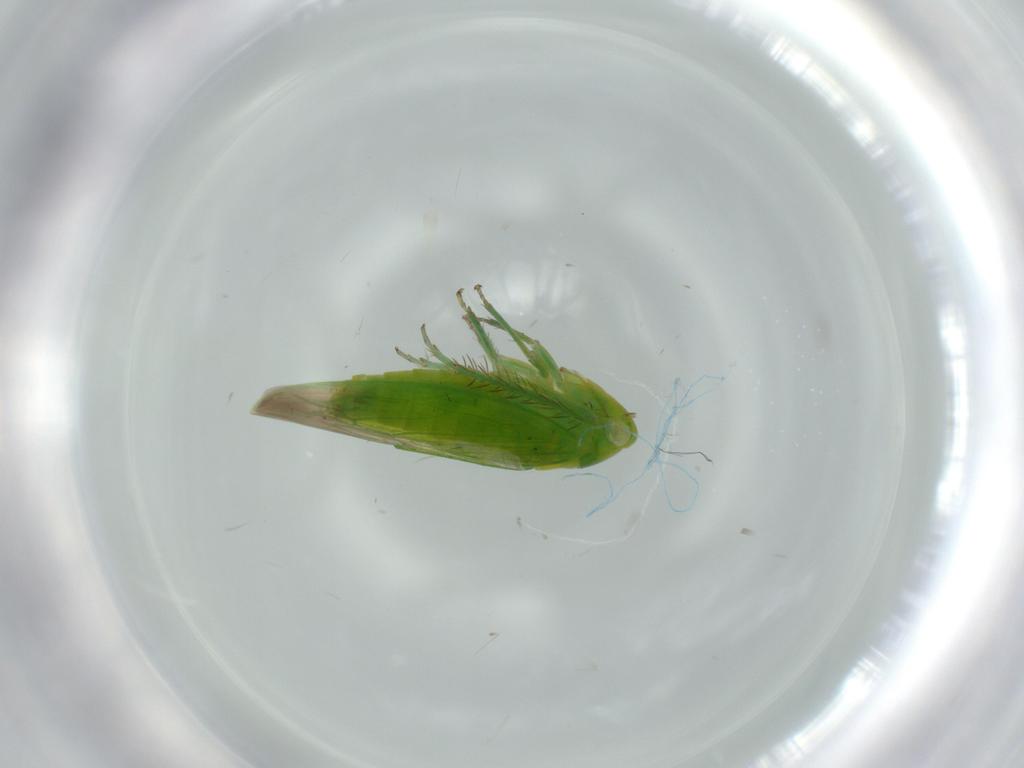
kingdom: Animalia
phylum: Arthropoda
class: Insecta
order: Hemiptera
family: Cicadellidae
